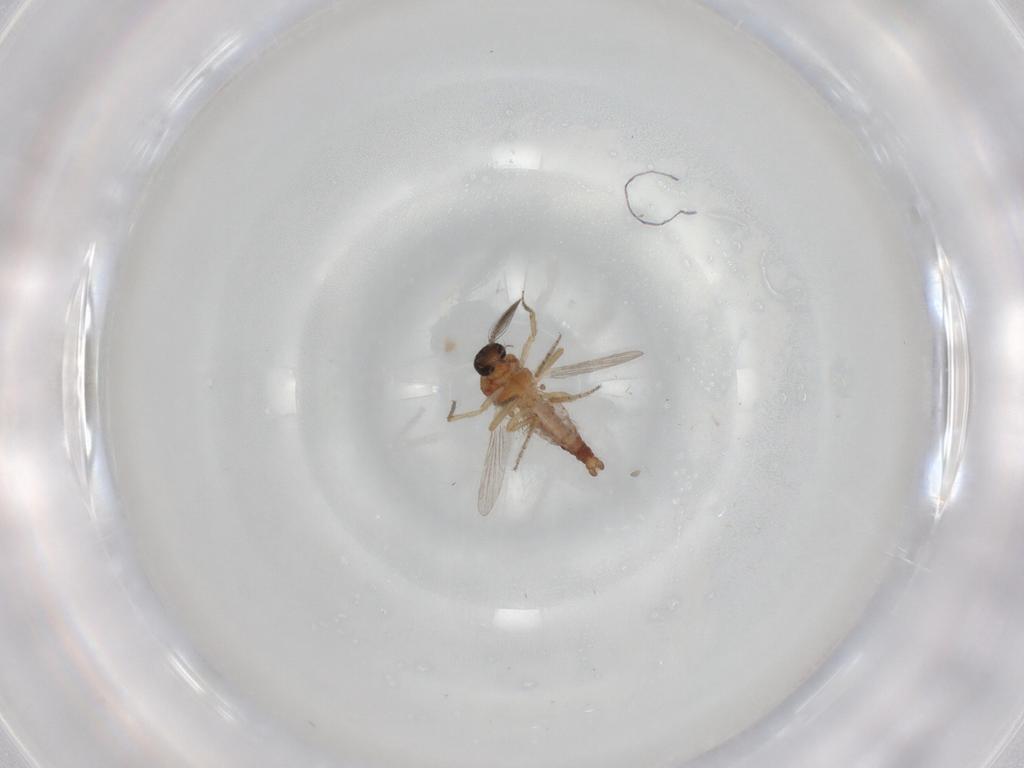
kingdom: Animalia
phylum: Arthropoda
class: Insecta
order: Diptera
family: Ceratopogonidae
